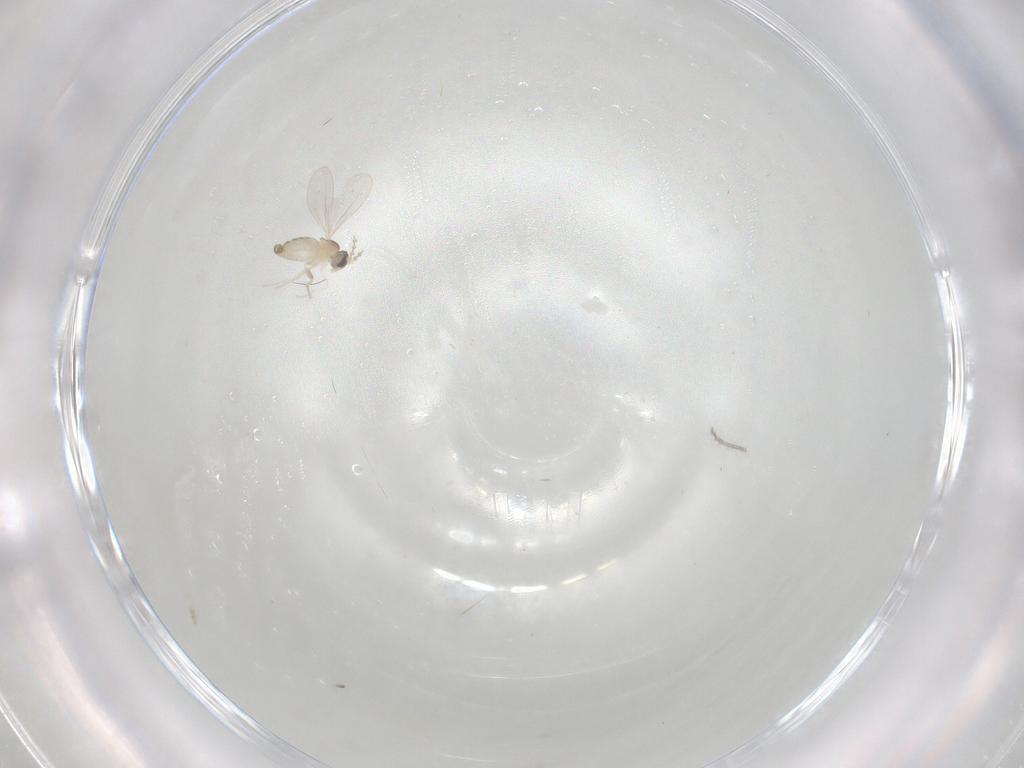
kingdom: Animalia
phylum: Arthropoda
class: Insecta
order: Diptera
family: Cecidomyiidae
